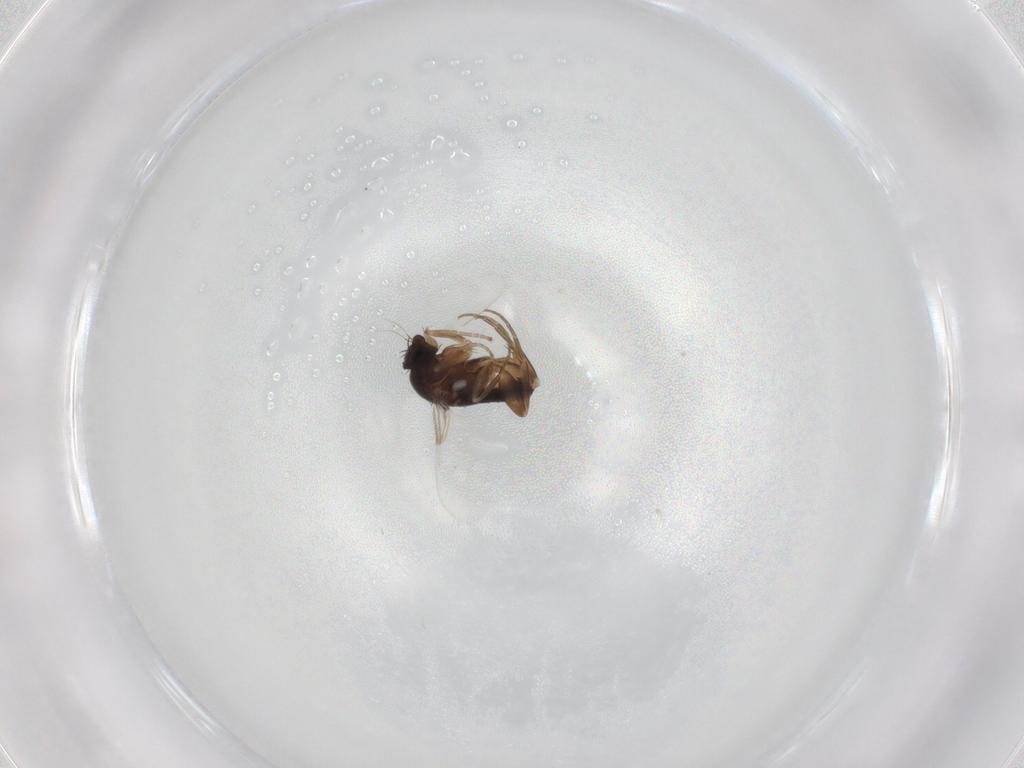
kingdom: Animalia
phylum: Arthropoda
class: Insecta
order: Diptera
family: Phoridae
